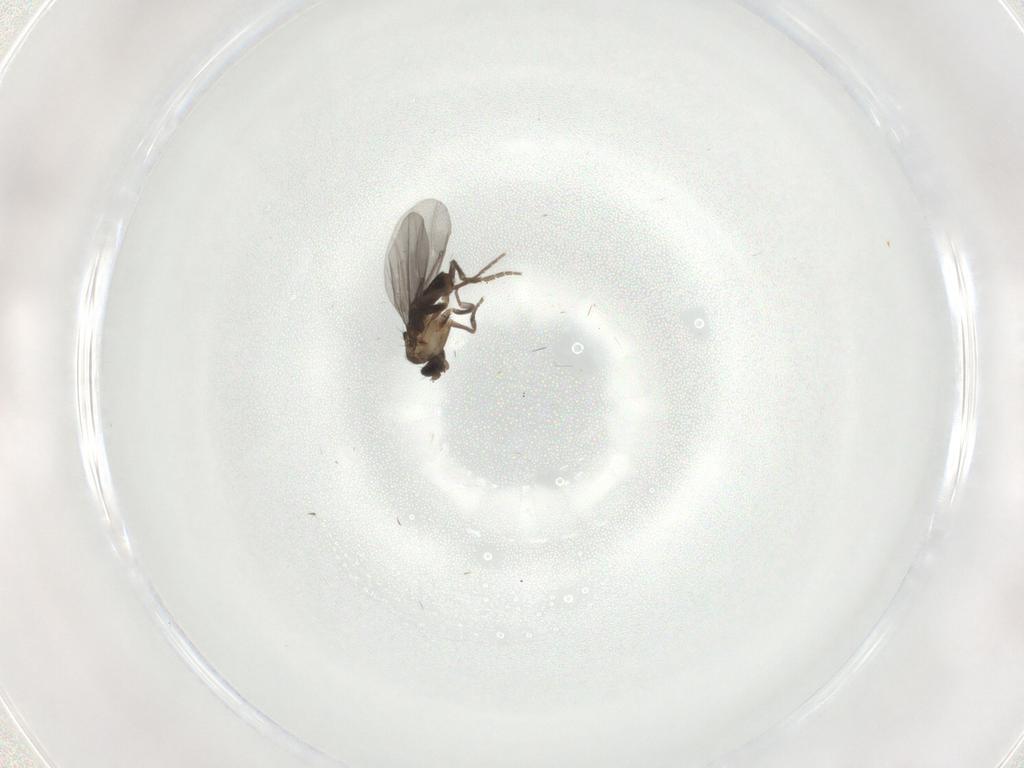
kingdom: Animalia
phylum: Arthropoda
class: Insecta
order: Diptera
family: Phoridae
